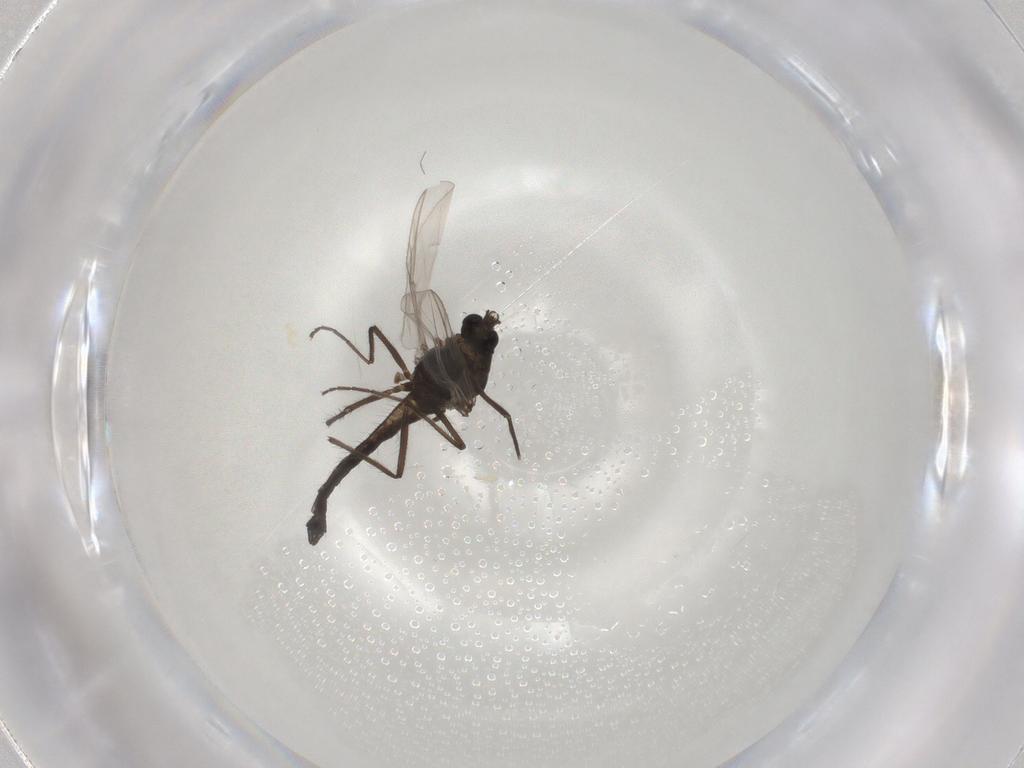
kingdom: Animalia
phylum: Arthropoda
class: Insecta
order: Diptera
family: Chironomidae
